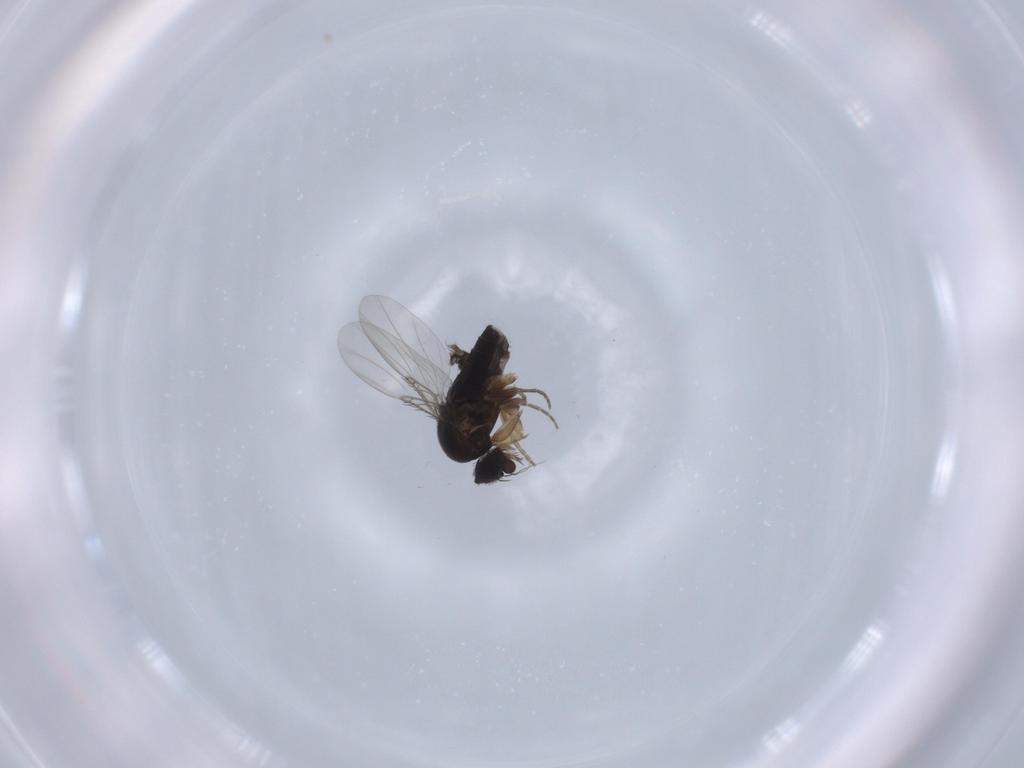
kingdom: Animalia
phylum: Arthropoda
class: Insecta
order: Diptera
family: Phoridae
